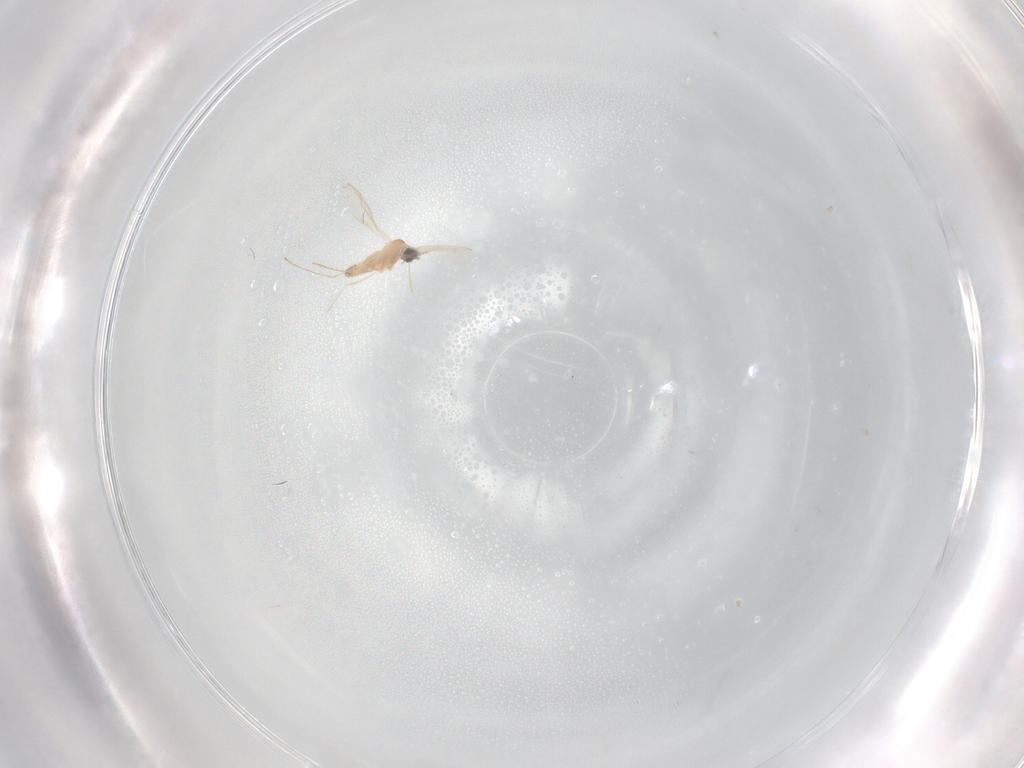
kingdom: Animalia
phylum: Arthropoda
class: Insecta
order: Diptera
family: Cecidomyiidae
